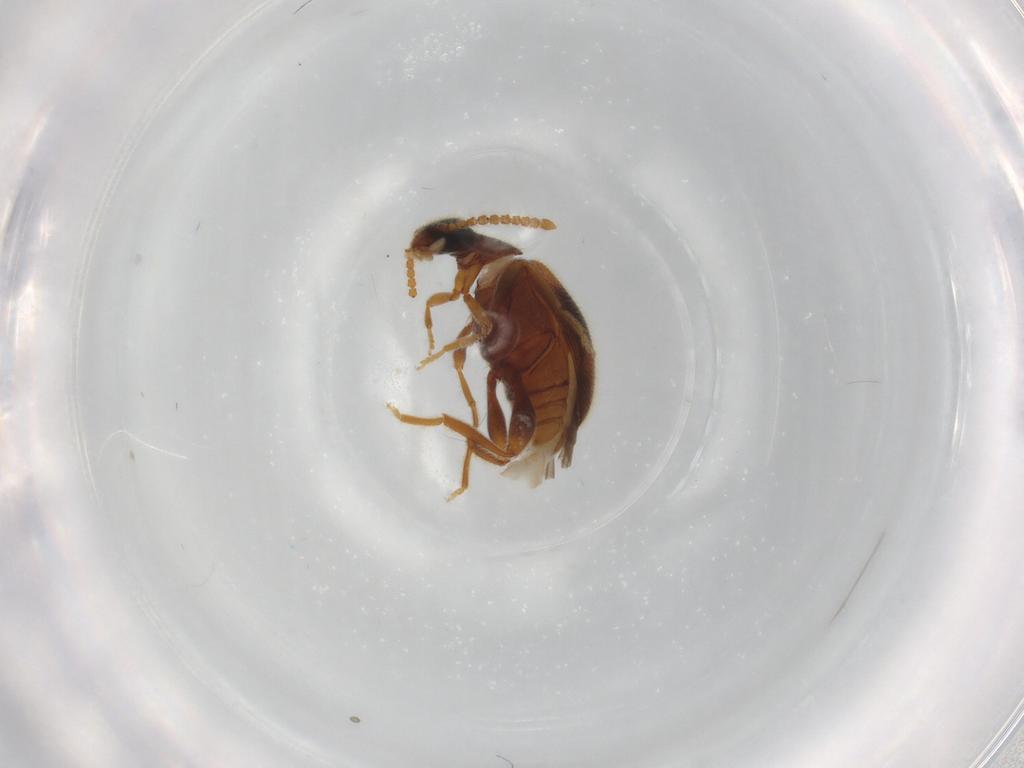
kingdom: Animalia
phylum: Arthropoda
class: Insecta
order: Coleoptera
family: Aderidae
